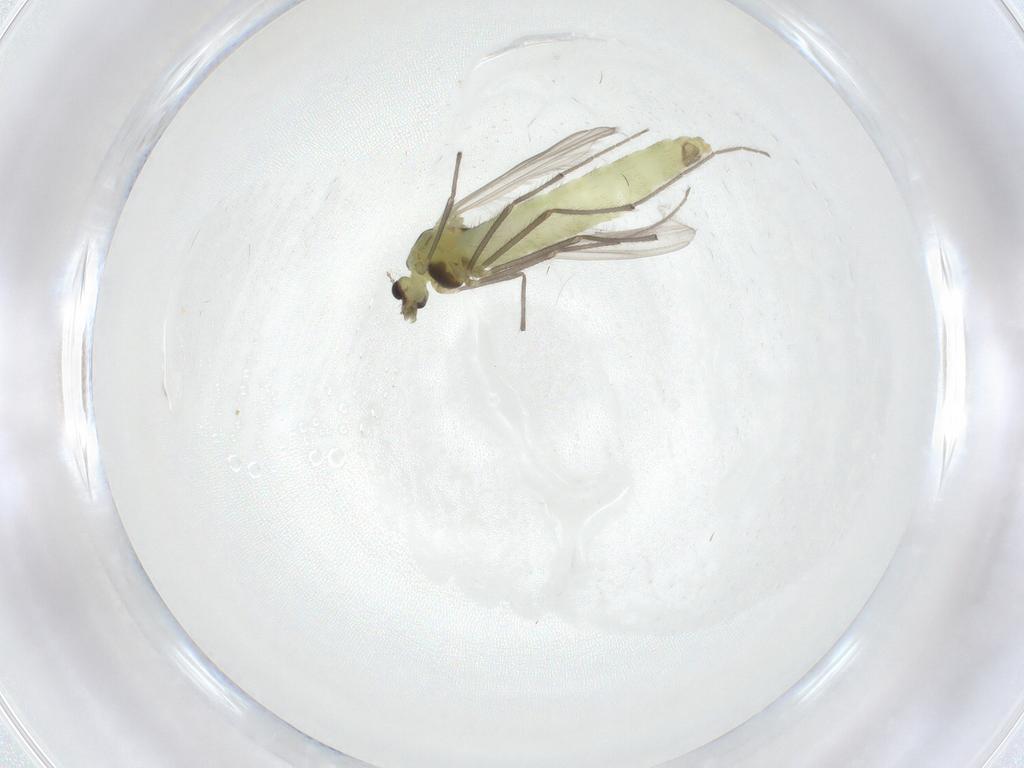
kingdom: Animalia
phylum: Arthropoda
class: Insecta
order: Diptera
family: Chironomidae
